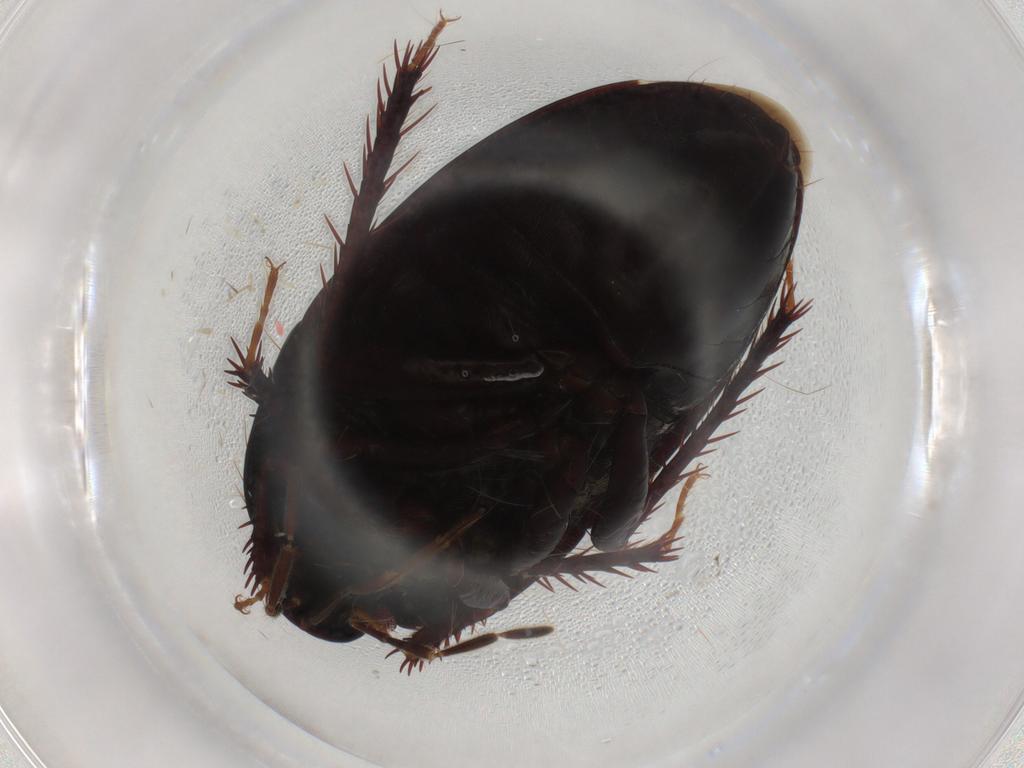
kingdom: Animalia
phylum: Arthropoda
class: Insecta
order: Hemiptera
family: Cydnidae
